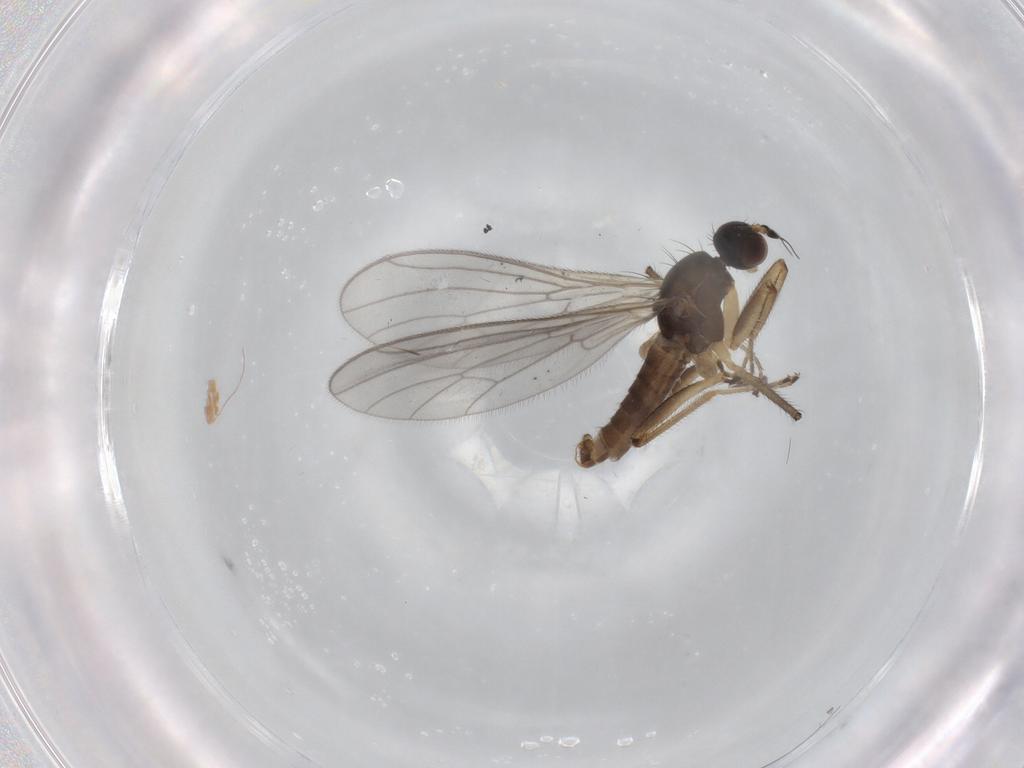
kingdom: Animalia
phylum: Arthropoda
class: Insecta
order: Diptera
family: Empididae
